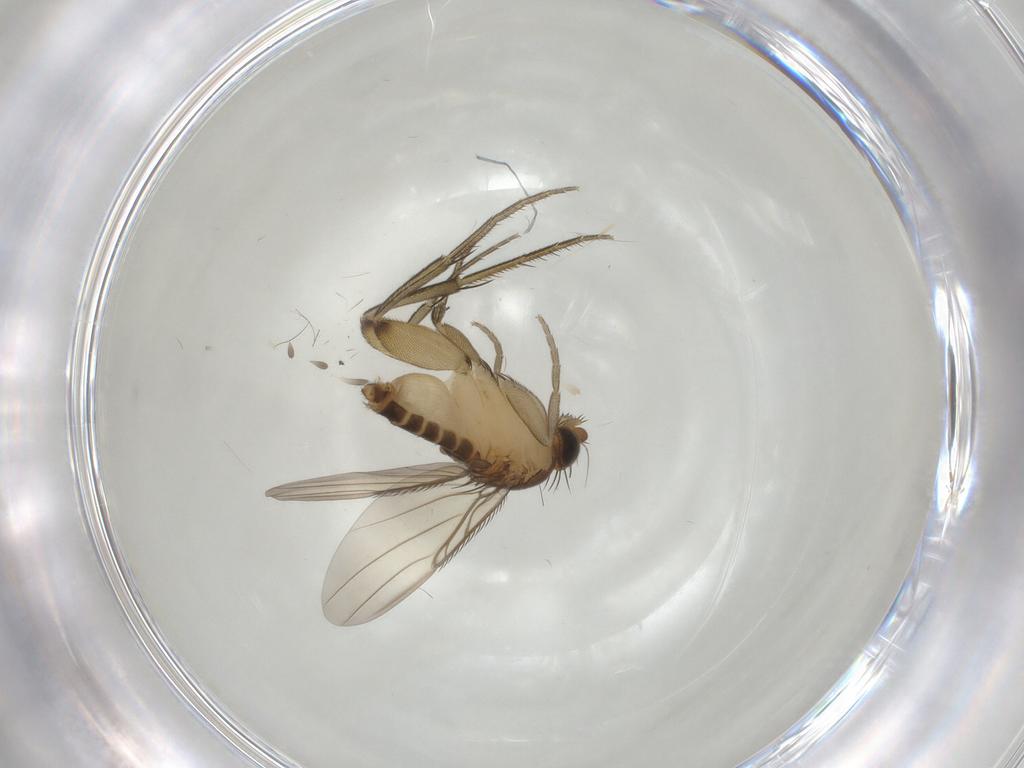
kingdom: Animalia
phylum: Arthropoda
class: Insecta
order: Diptera
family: Phoridae
